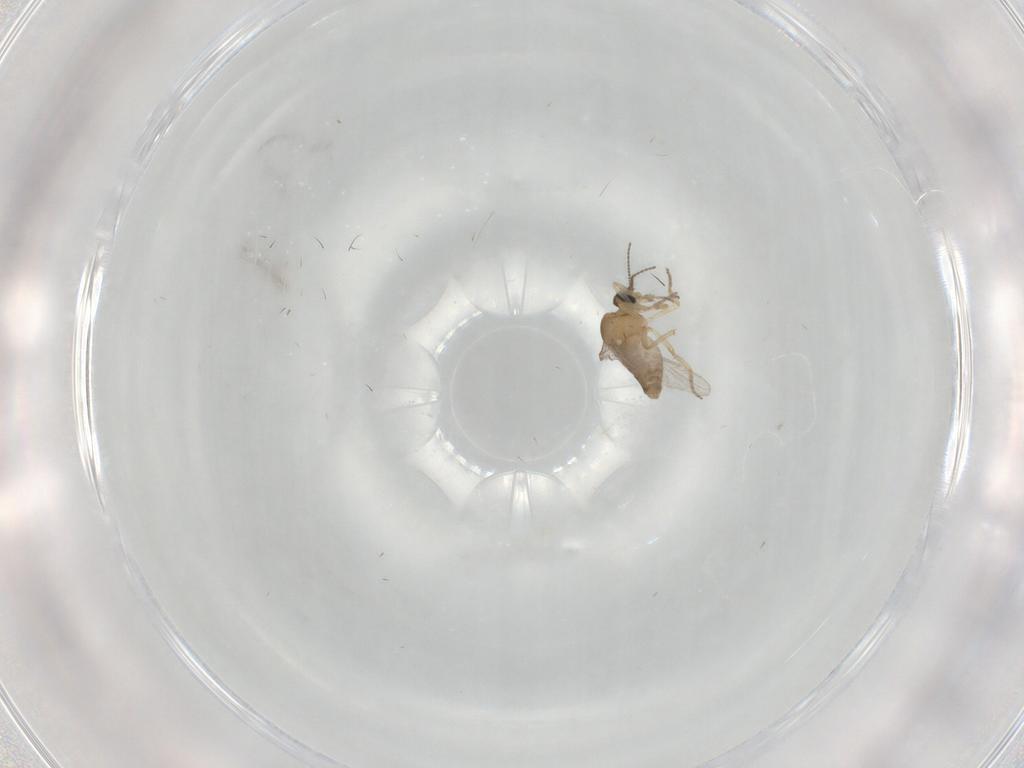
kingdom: Animalia
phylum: Arthropoda
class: Insecta
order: Diptera
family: Ceratopogonidae
